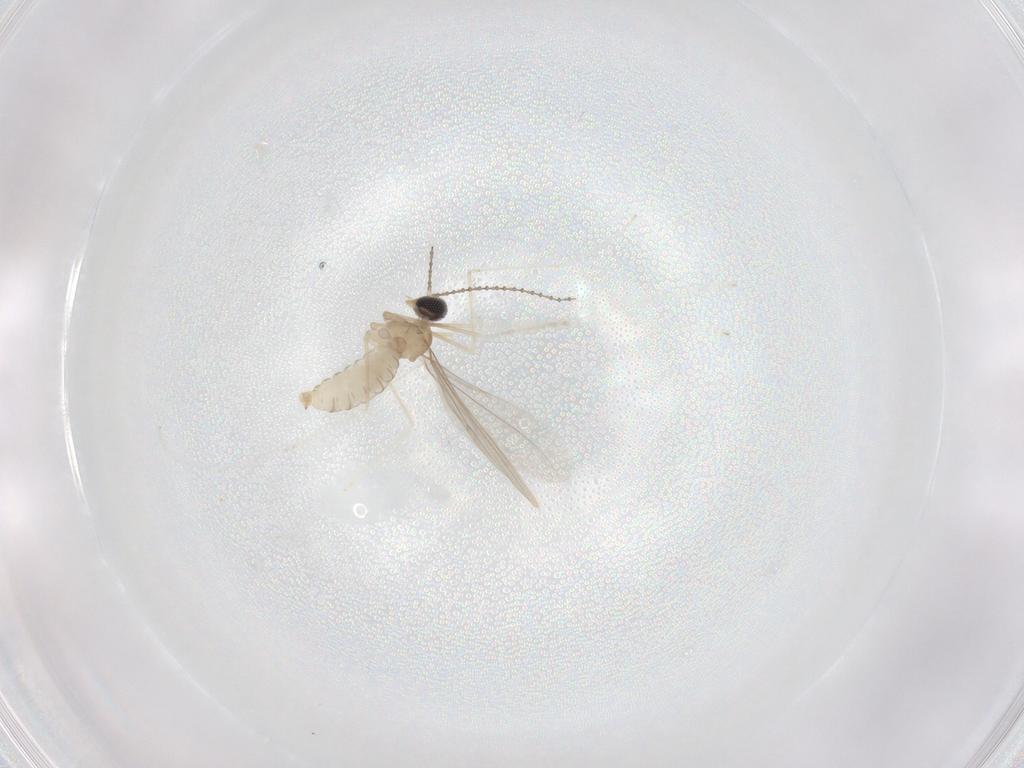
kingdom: Animalia
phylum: Arthropoda
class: Insecta
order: Diptera
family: Cecidomyiidae
